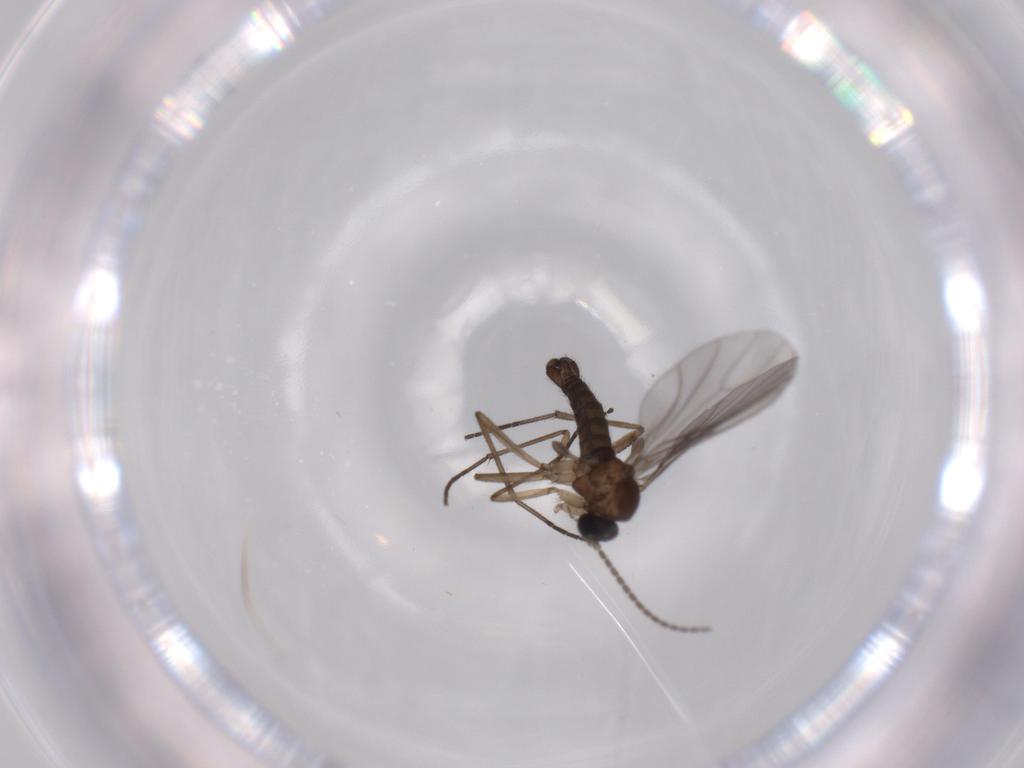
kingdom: Animalia
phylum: Arthropoda
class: Insecta
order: Diptera
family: Sciaridae
